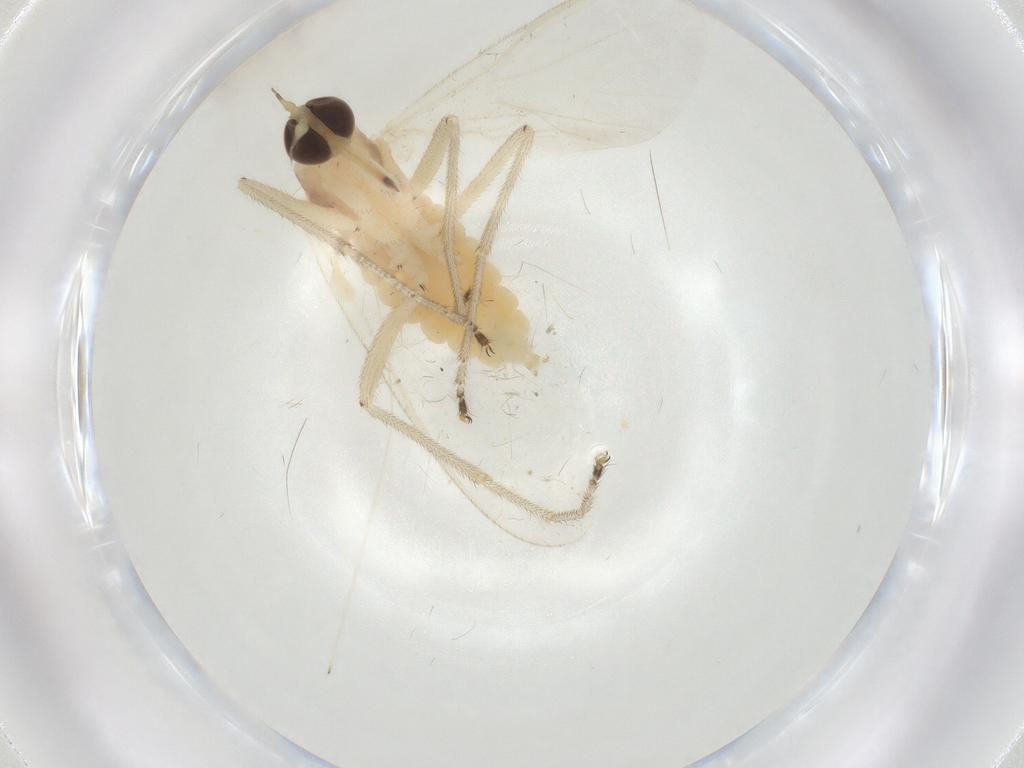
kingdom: Animalia
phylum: Arthropoda
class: Insecta
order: Diptera
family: Empididae
